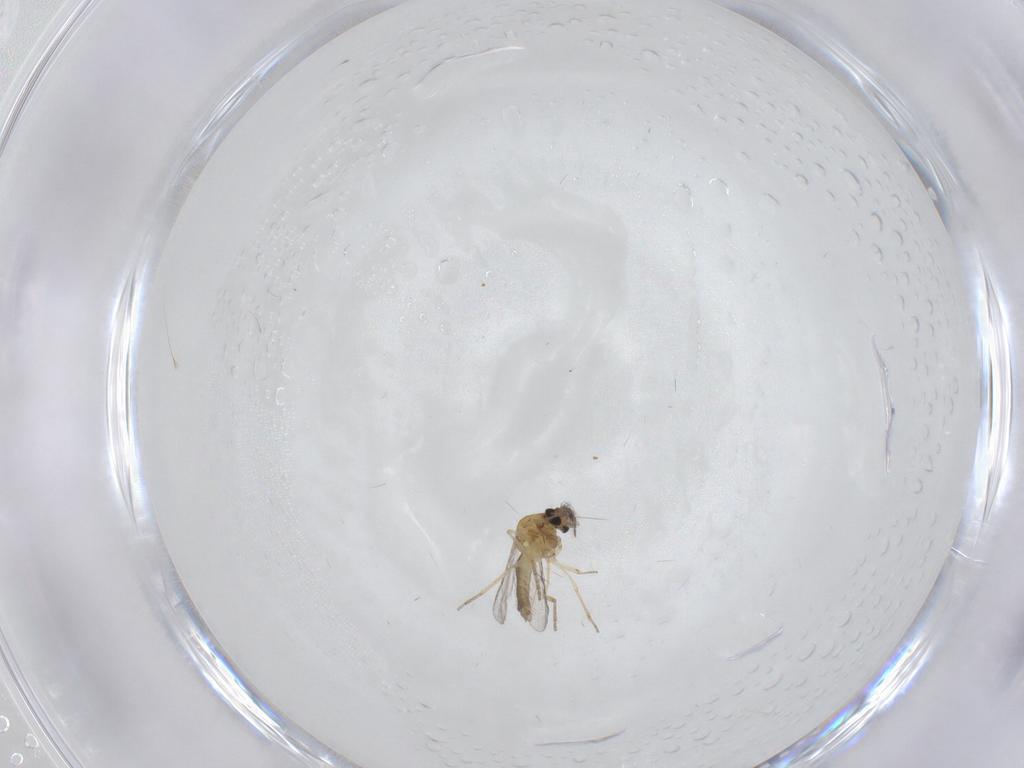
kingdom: Animalia
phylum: Arthropoda
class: Insecta
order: Diptera
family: Ceratopogonidae
